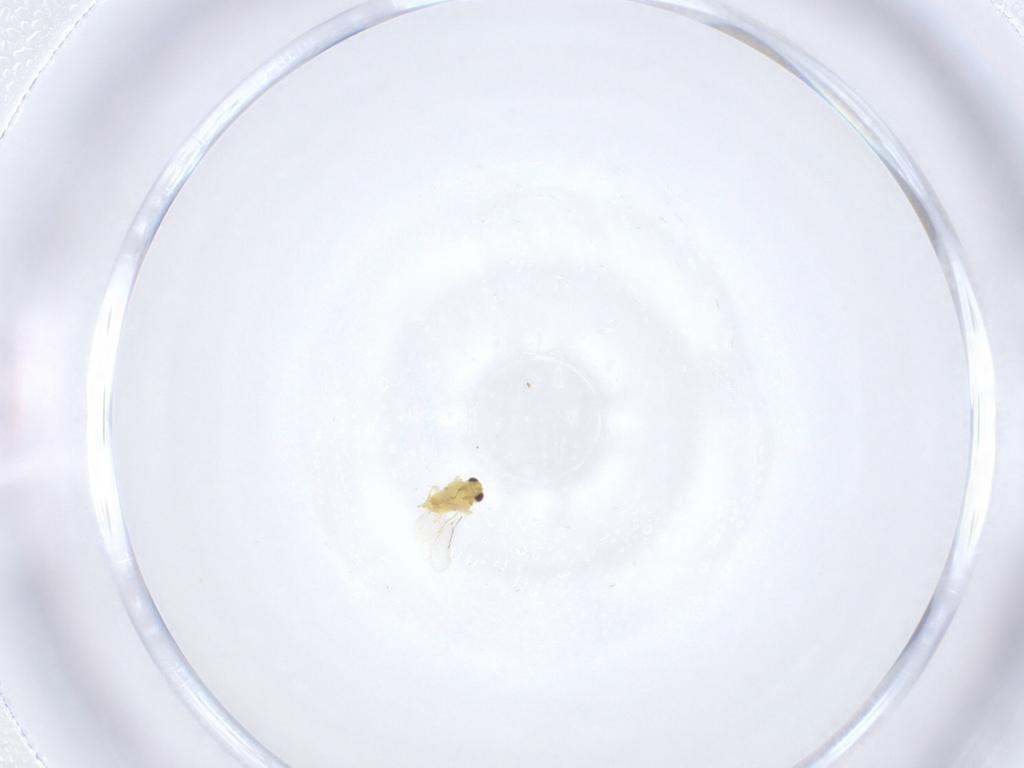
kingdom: Animalia
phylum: Arthropoda
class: Insecta
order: Hymenoptera
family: Aphelinidae
